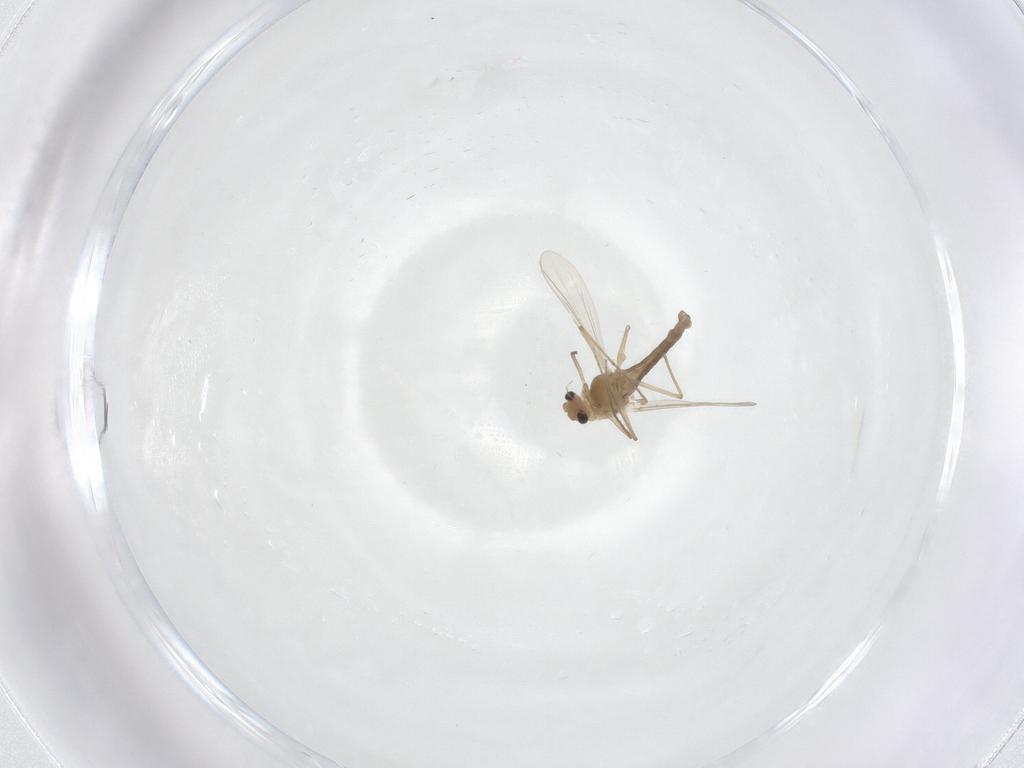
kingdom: Animalia
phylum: Arthropoda
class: Insecta
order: Diptera
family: Chironomidae
